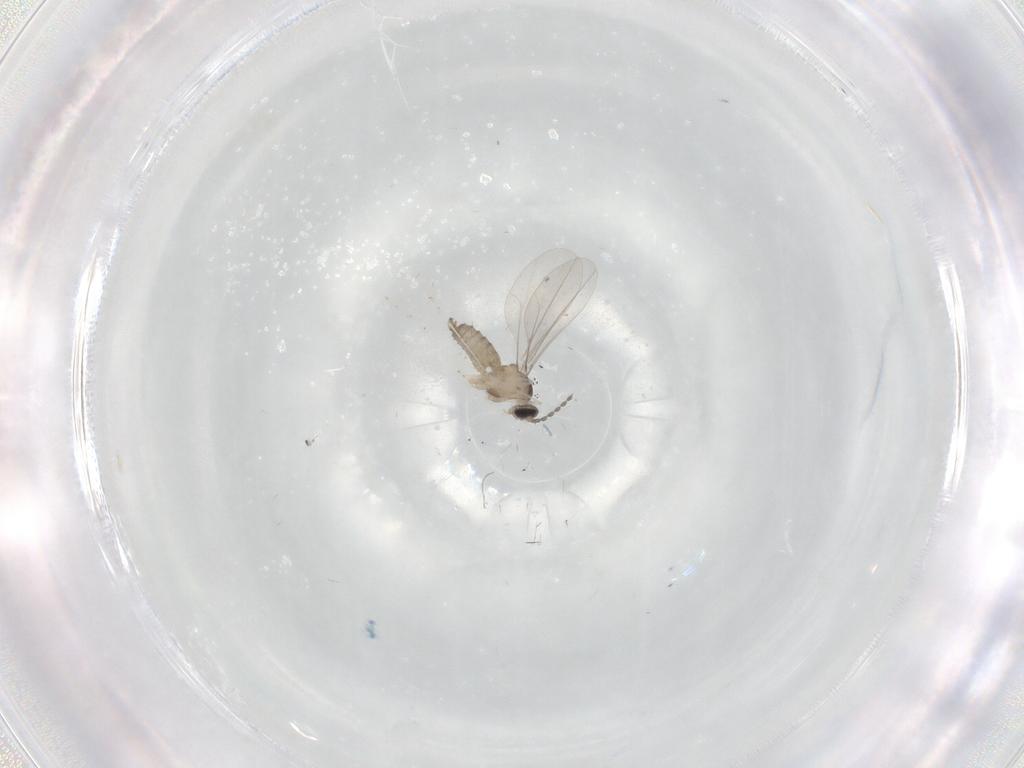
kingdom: Animalia
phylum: Arthropoda
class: Insecta
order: Diptera
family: Cecidomyiidae
